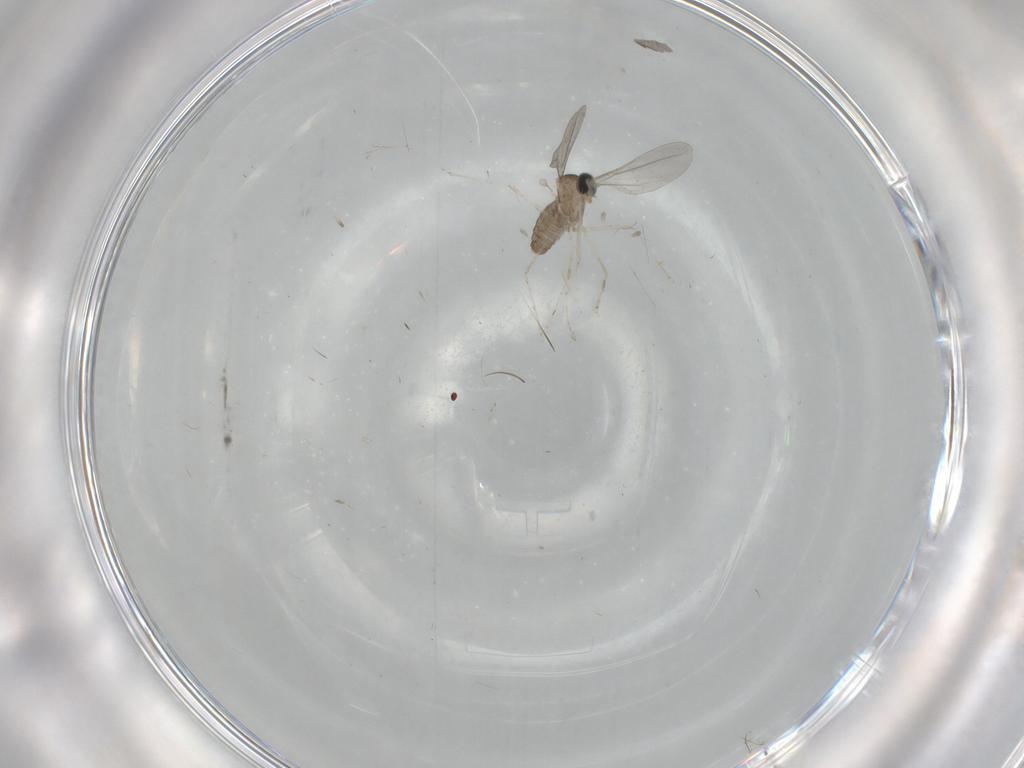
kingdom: Animalia
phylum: Arthropoda
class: Insecta
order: Diptera
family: Cecidomyiidae
